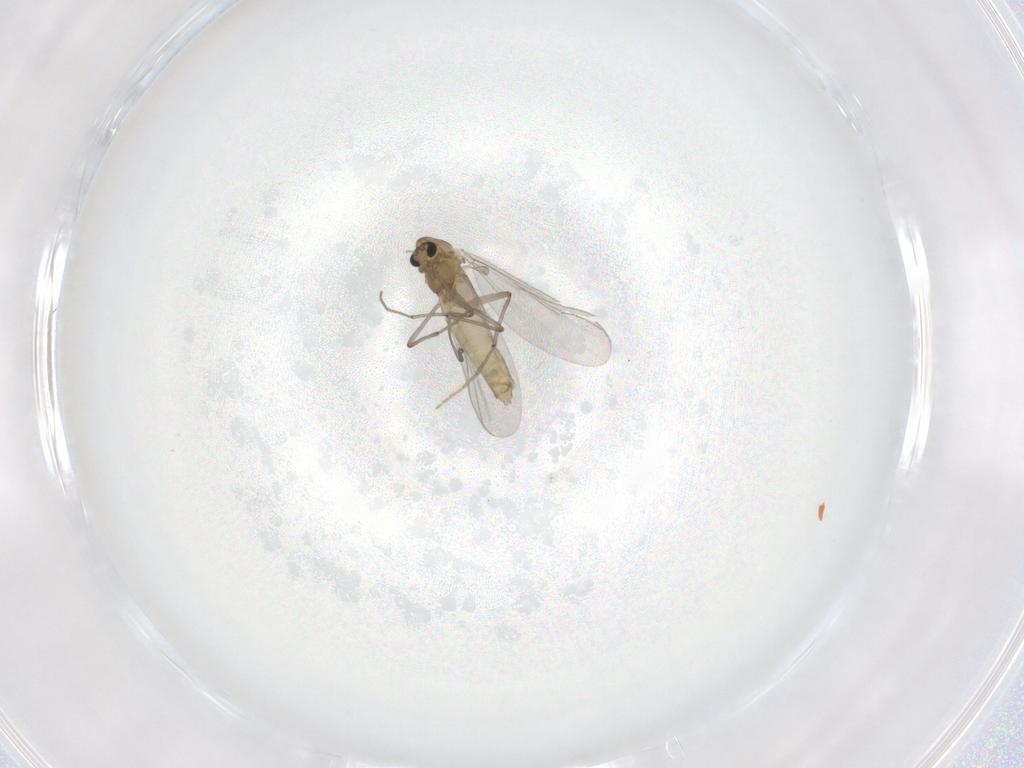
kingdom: Animalia
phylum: Arthropoda
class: Insecta
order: Diptera
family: Chironomidae
